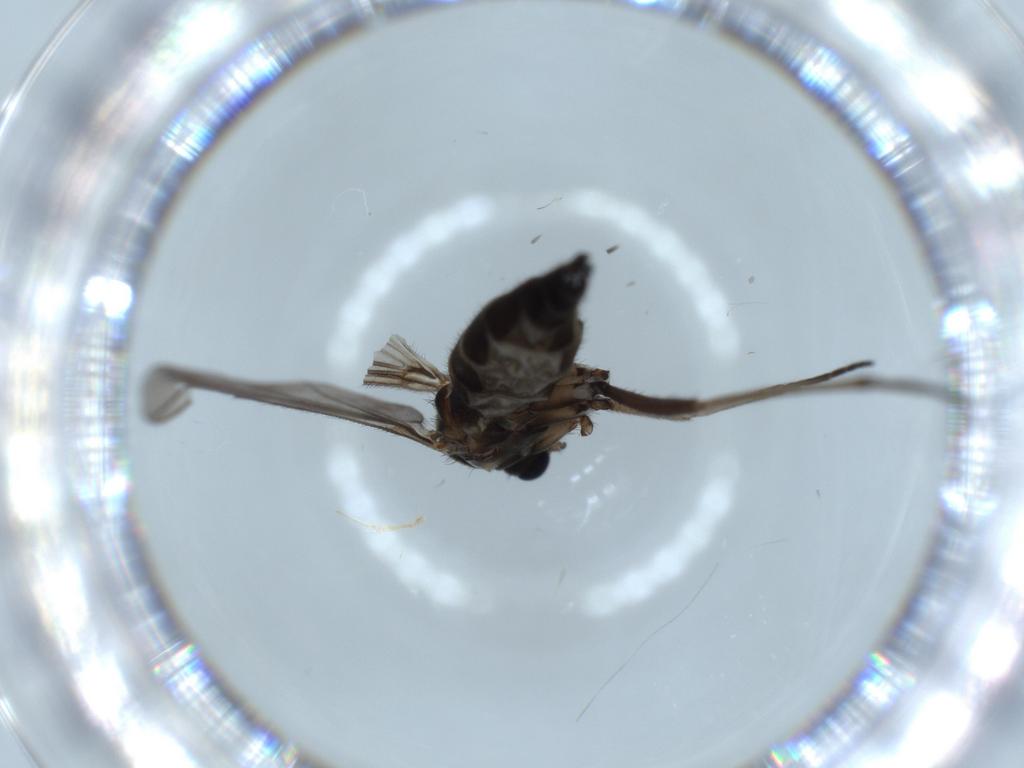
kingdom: Animalia
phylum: Arthropoda
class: Insecta
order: Diptera
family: Sciaridae
